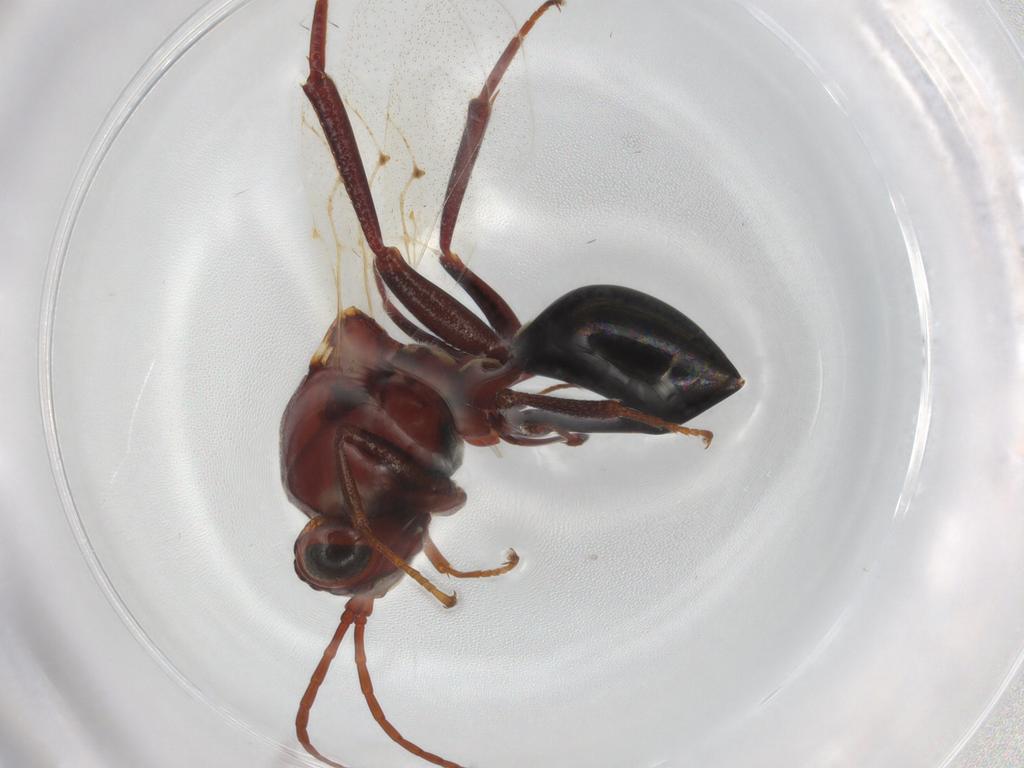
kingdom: Animalia
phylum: Arthropoda
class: Insecta
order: Hymenoptera
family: Figitidae
